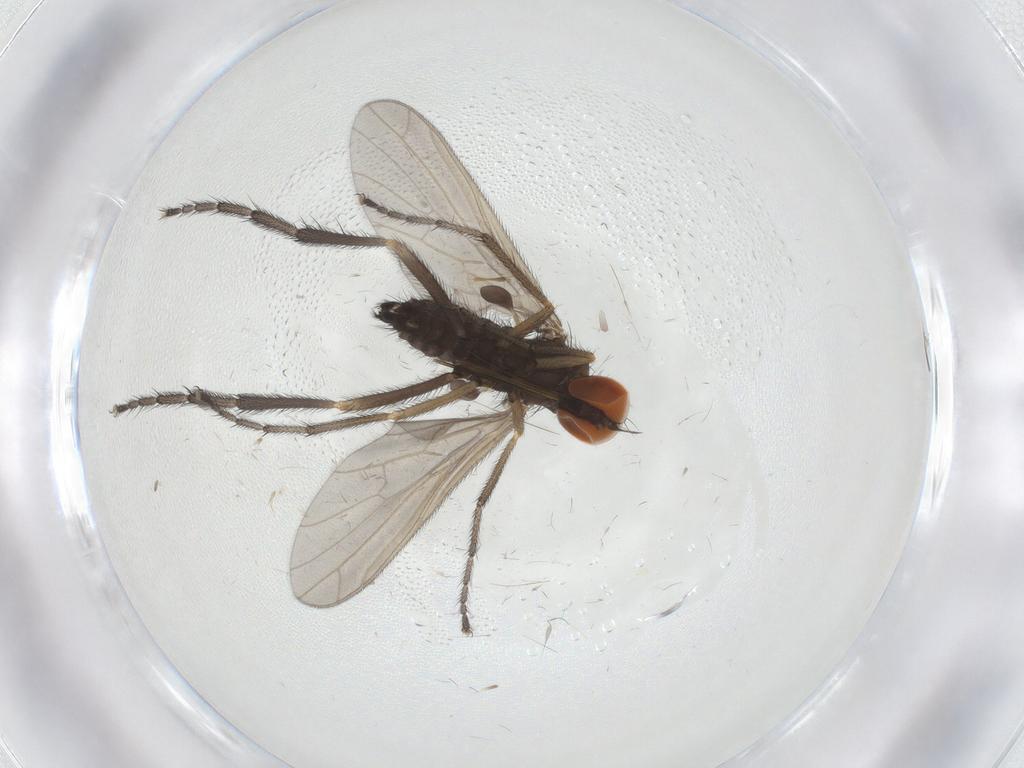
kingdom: Animalia
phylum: Arthropoda
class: Insecta
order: Diptera
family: Empididae
